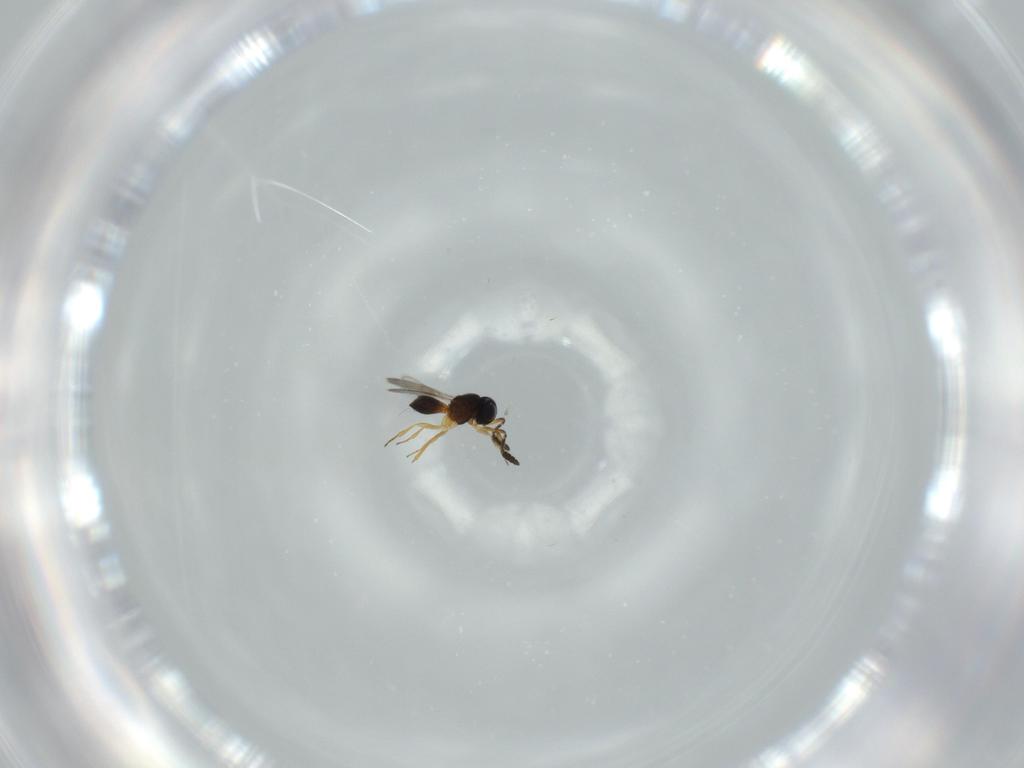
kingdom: Animalia
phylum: Arthropoda
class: Insecta
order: Hymenoptera
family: Scelionidae
